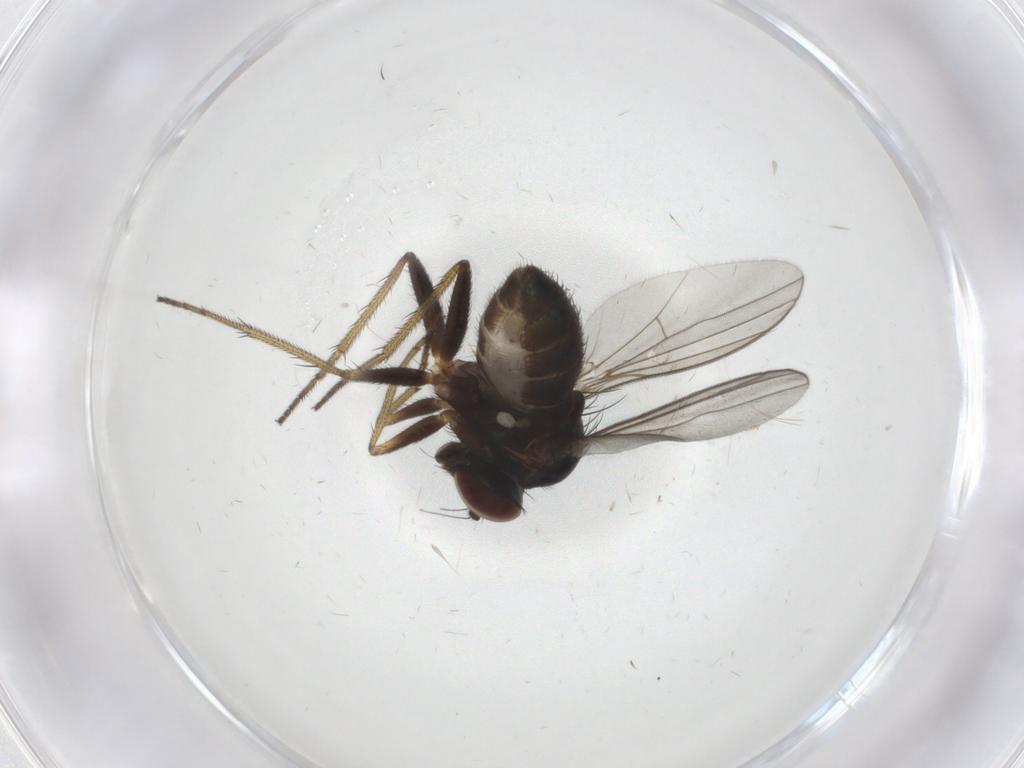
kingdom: Animalia
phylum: Arthropoda
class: Insecta
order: Diptera
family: Dolichopodidae
